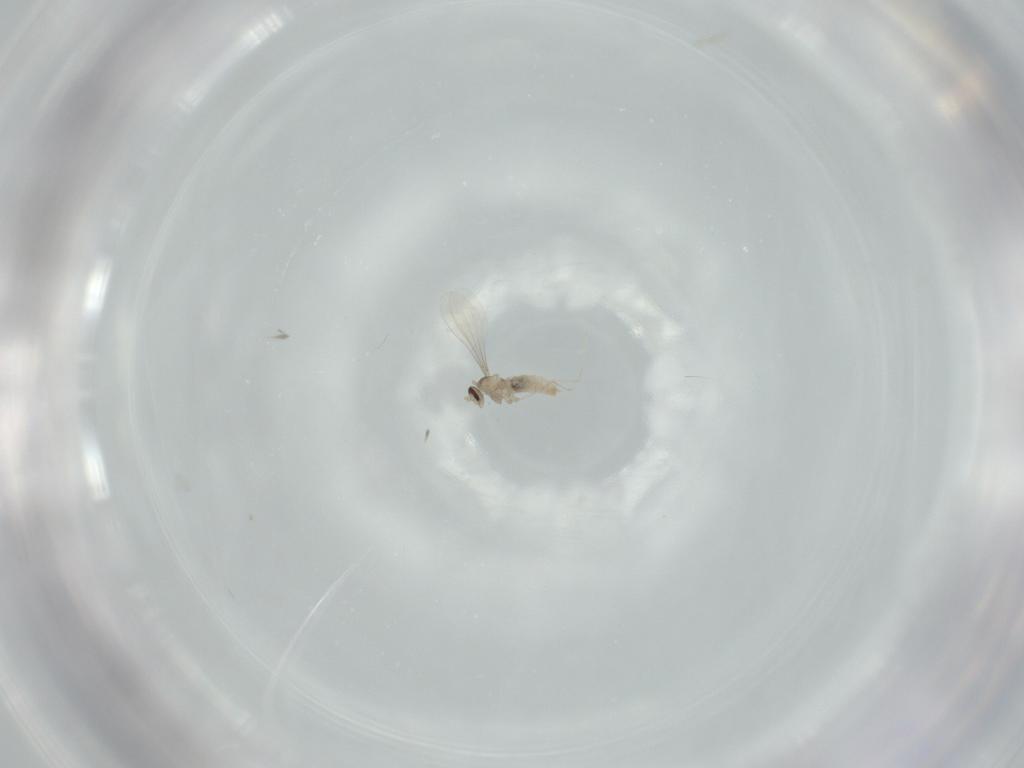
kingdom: Animalia
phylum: Arthropoda
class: Insecta
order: Diptera
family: Cecidomyiidae
